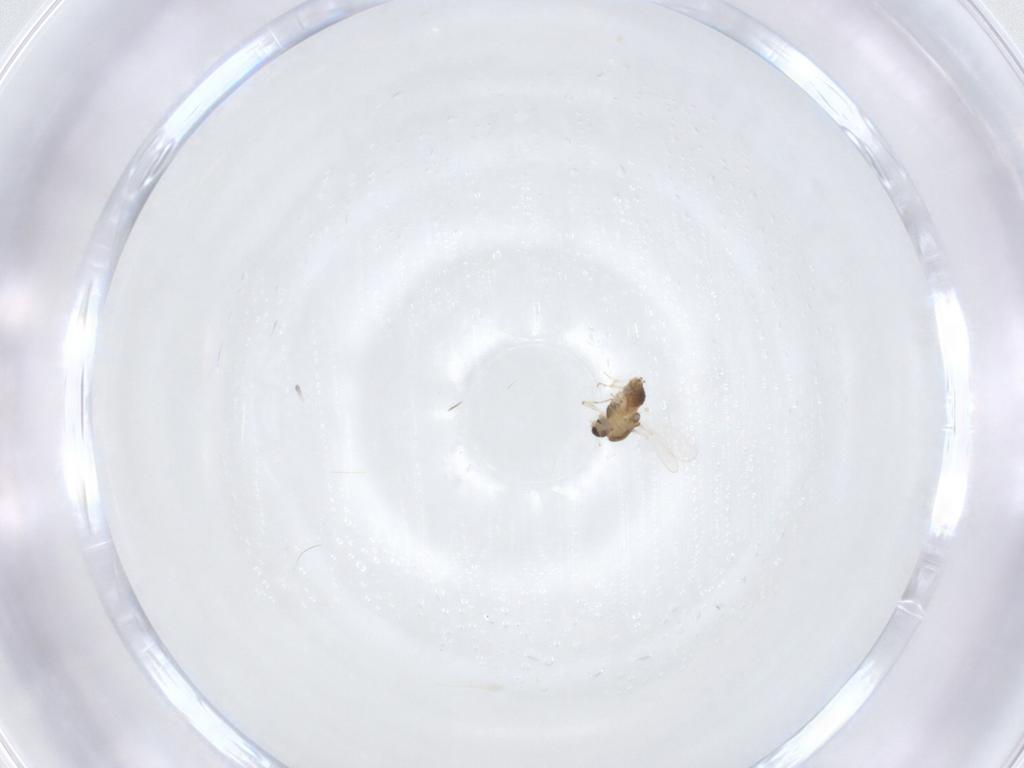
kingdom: Animalia
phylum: Arthropoda
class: Insecta
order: Diptera
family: Chironomidae
